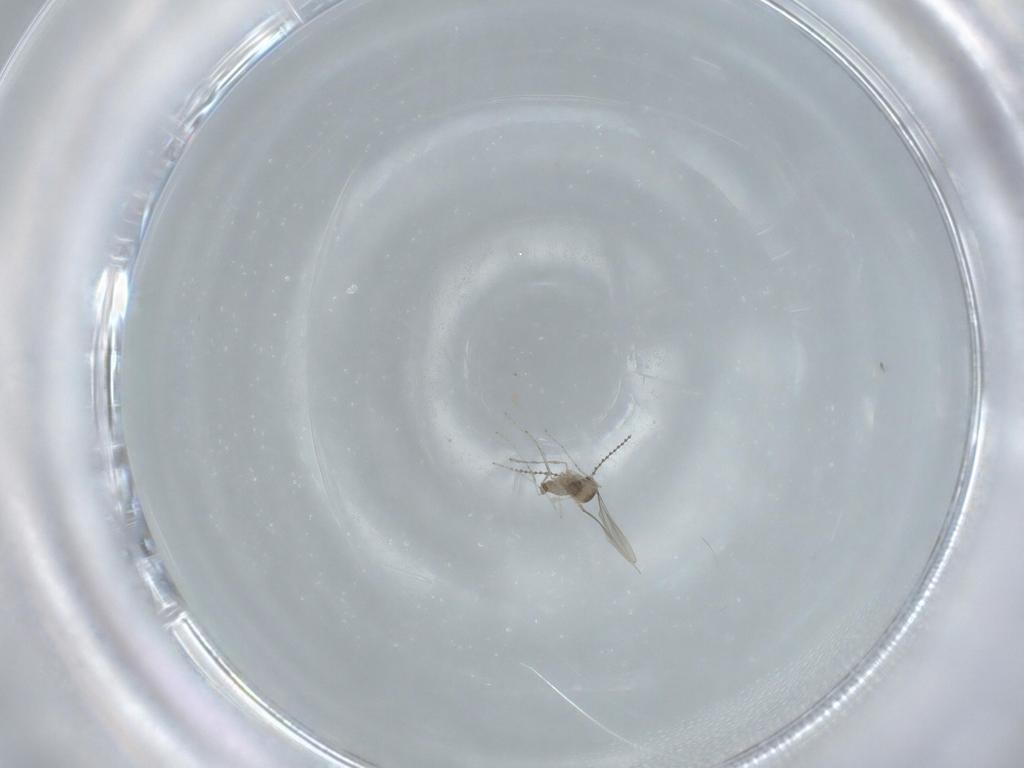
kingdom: Animalia
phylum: Arthropoda
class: Insecta
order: Diptera
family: Cecidomyiidae
